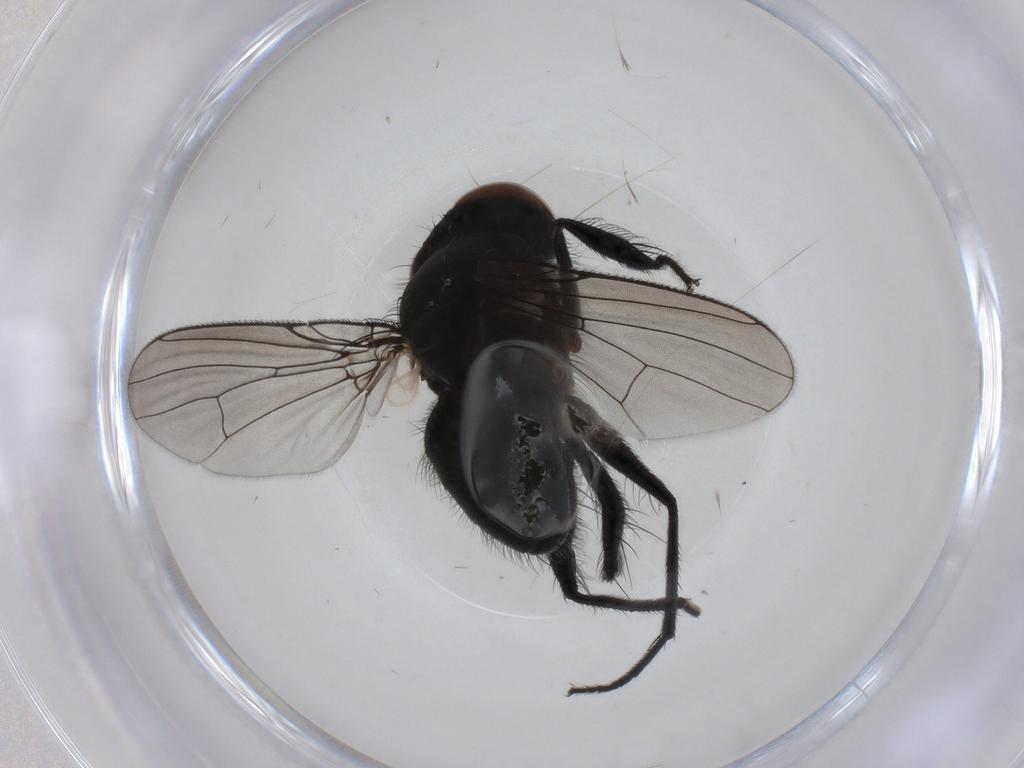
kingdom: Animalia
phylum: Arthropoda
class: Insecta
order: Diptera
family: Muscidae
